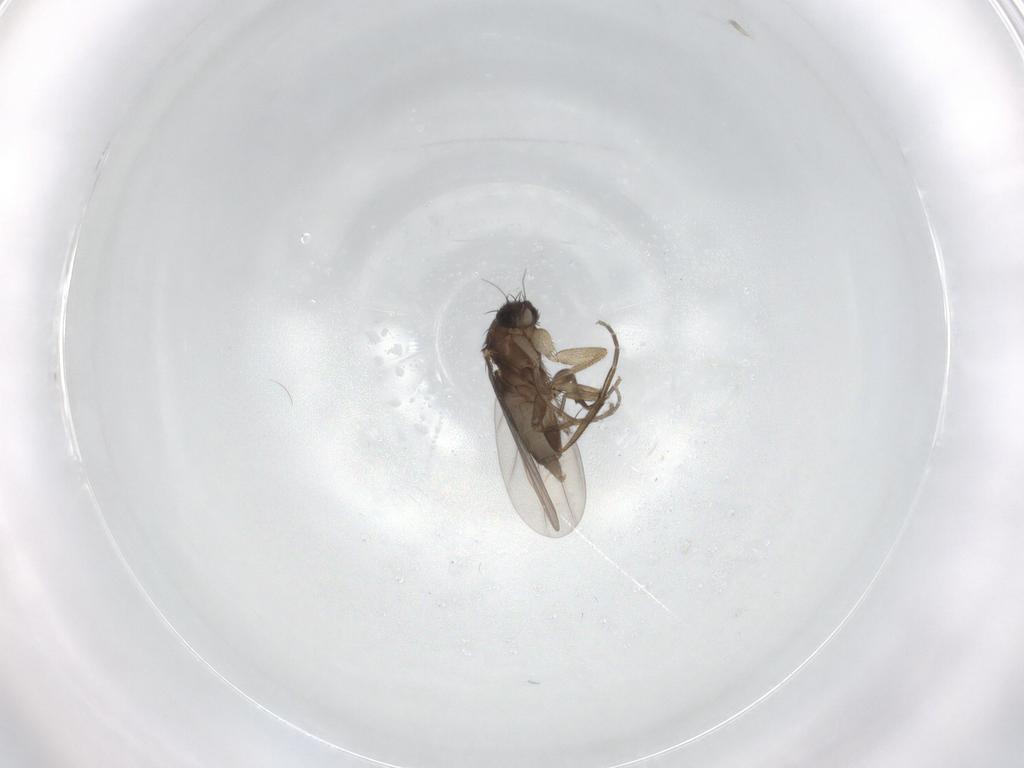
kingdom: Animalia
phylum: Arthropoda
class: Insecta
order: Diptera
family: Phoridae
